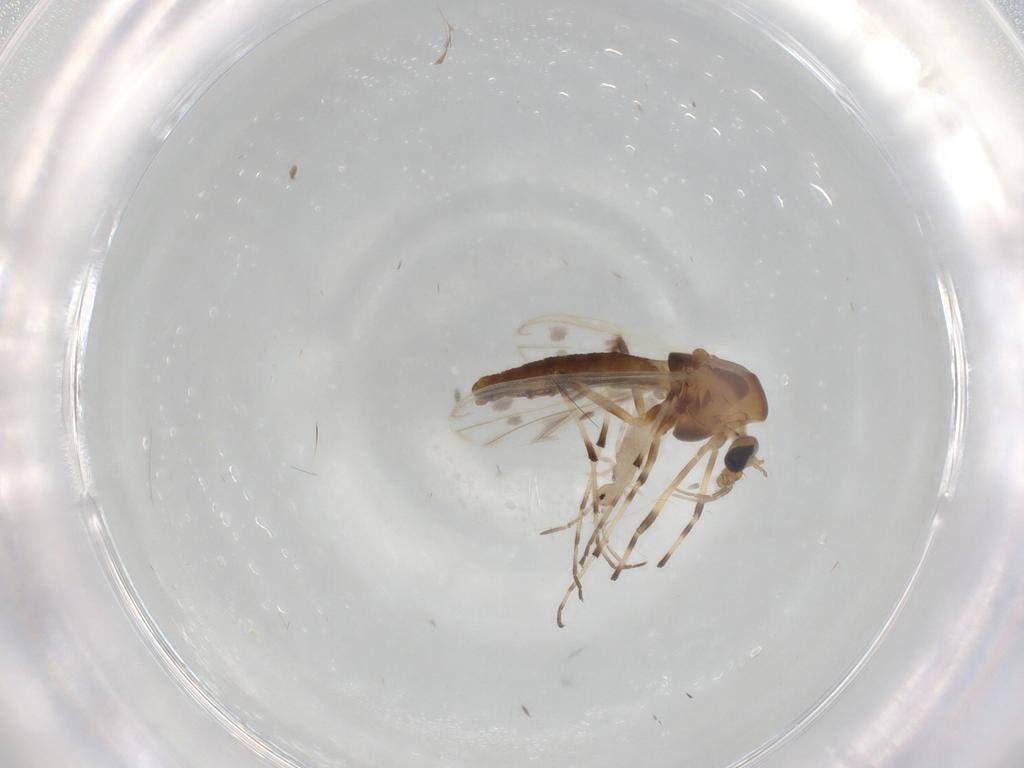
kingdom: Animalia
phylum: Arthropoda
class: Insecta
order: Diptera
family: Chironomidae
